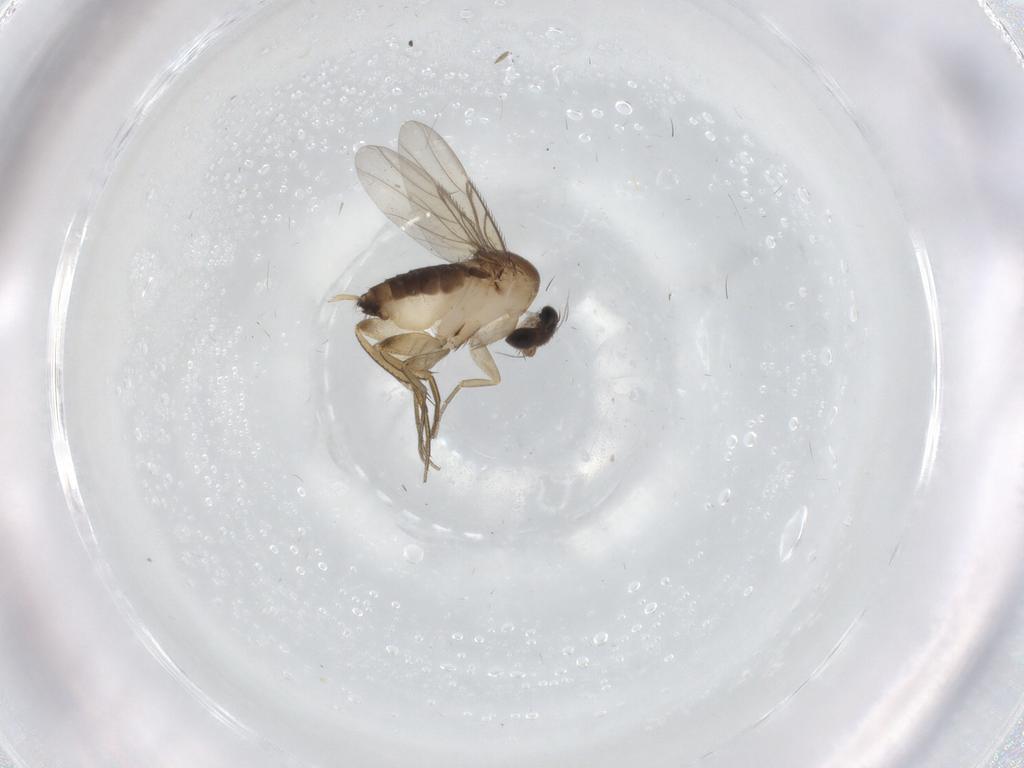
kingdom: Animalia
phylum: Arthropoda
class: Insecta
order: Diptera
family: Phoridae
